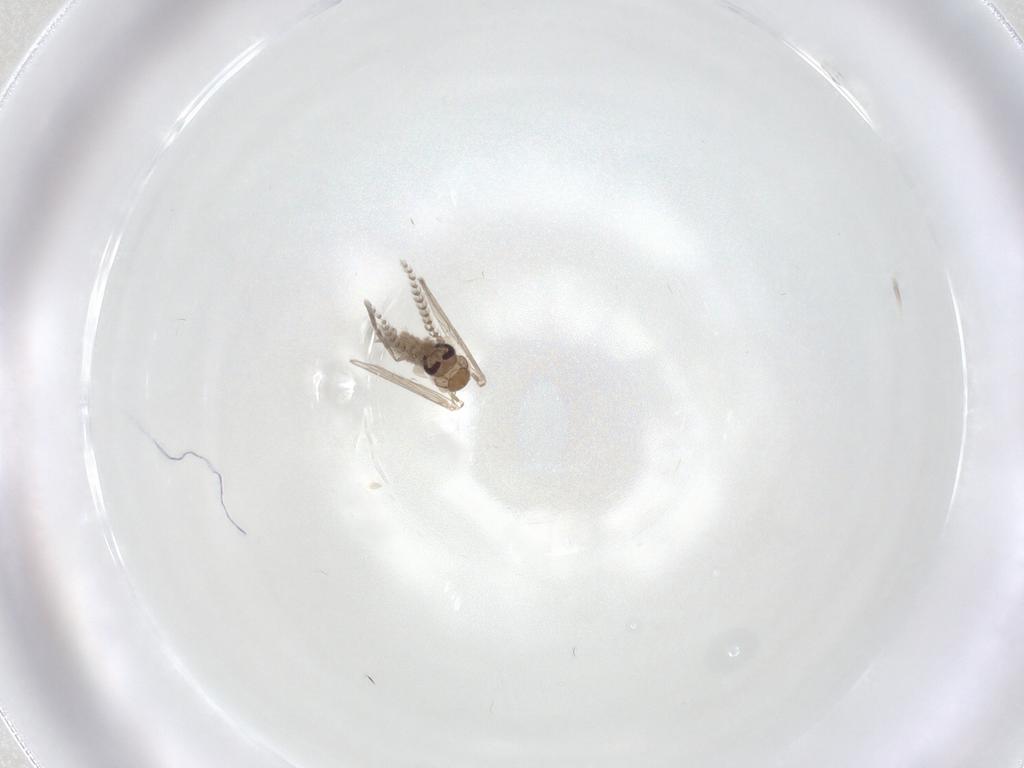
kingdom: Animalia
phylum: Arthropoda
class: Insecta
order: Diptera
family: Psychodidae
